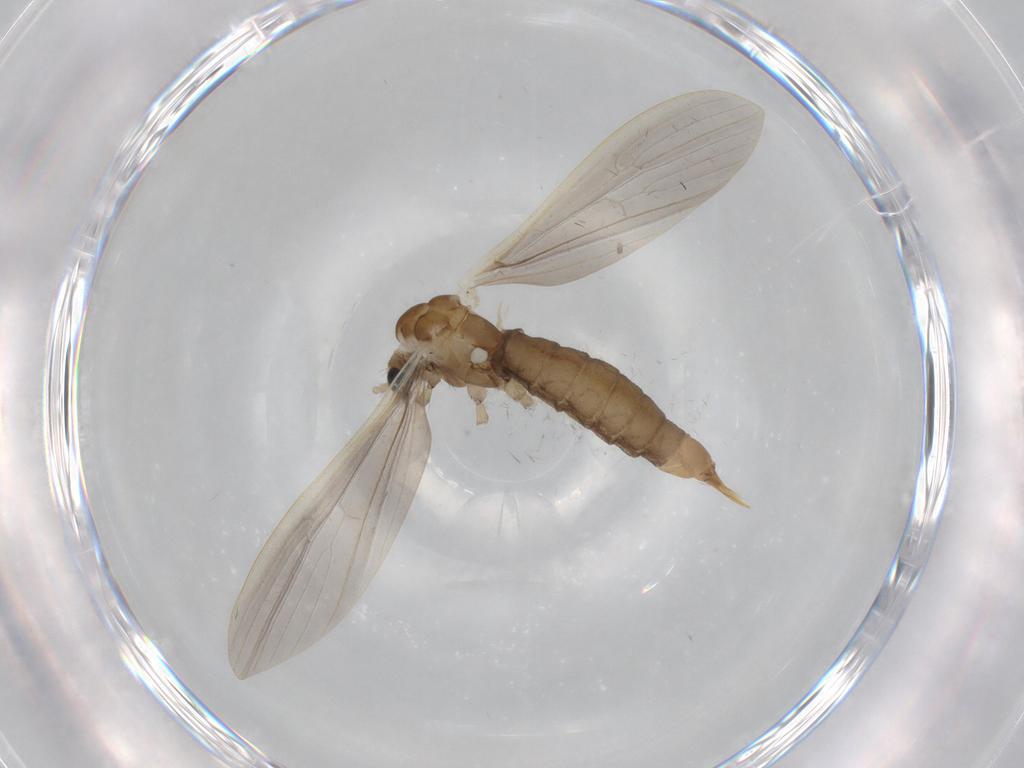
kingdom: Animalia
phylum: Arthropoda
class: Insecta
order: Diptera
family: Limoniidae
